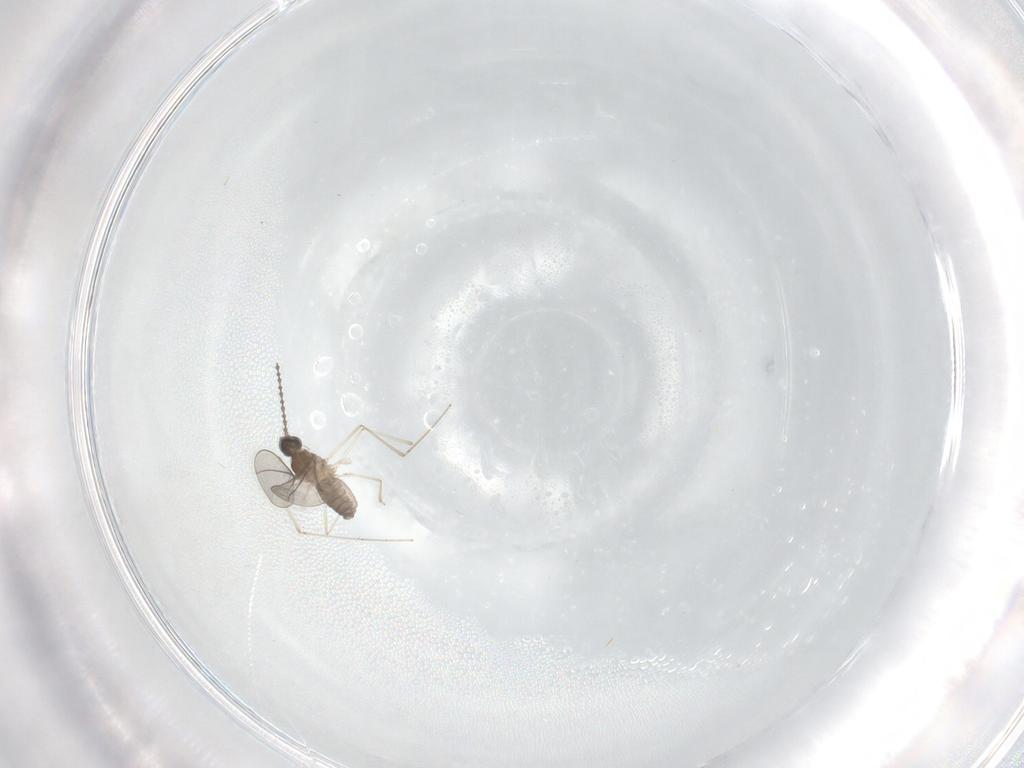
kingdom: Animalia
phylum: Arthropoda
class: Insecta
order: Diptera
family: Cecidomyiidae
